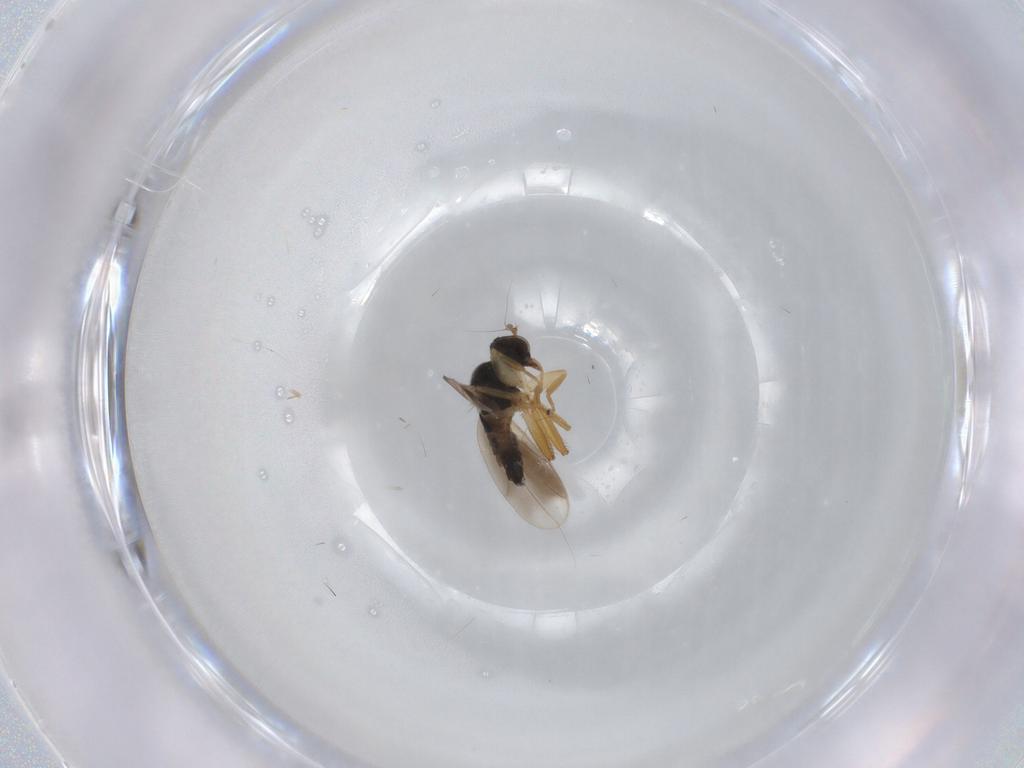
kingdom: Animalia
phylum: Arthropoda
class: Insecta
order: Diptera
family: Hybotidae
